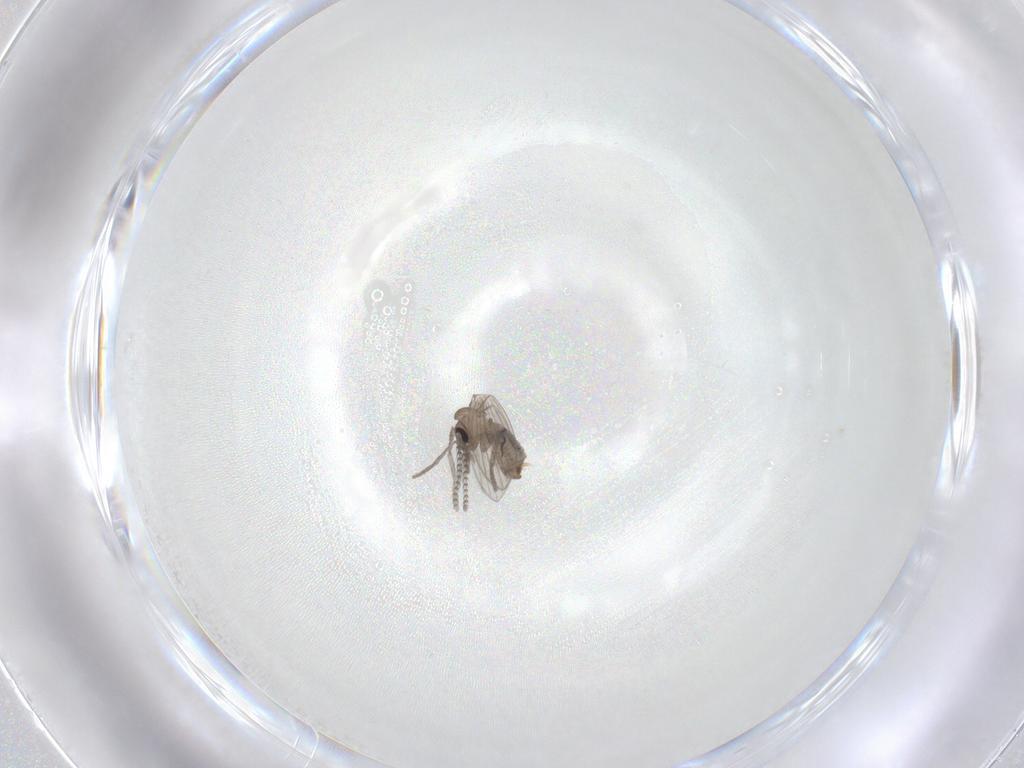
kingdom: Animalia
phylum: Arthropoda
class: Insecta
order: Diptera
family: Psychodidae
